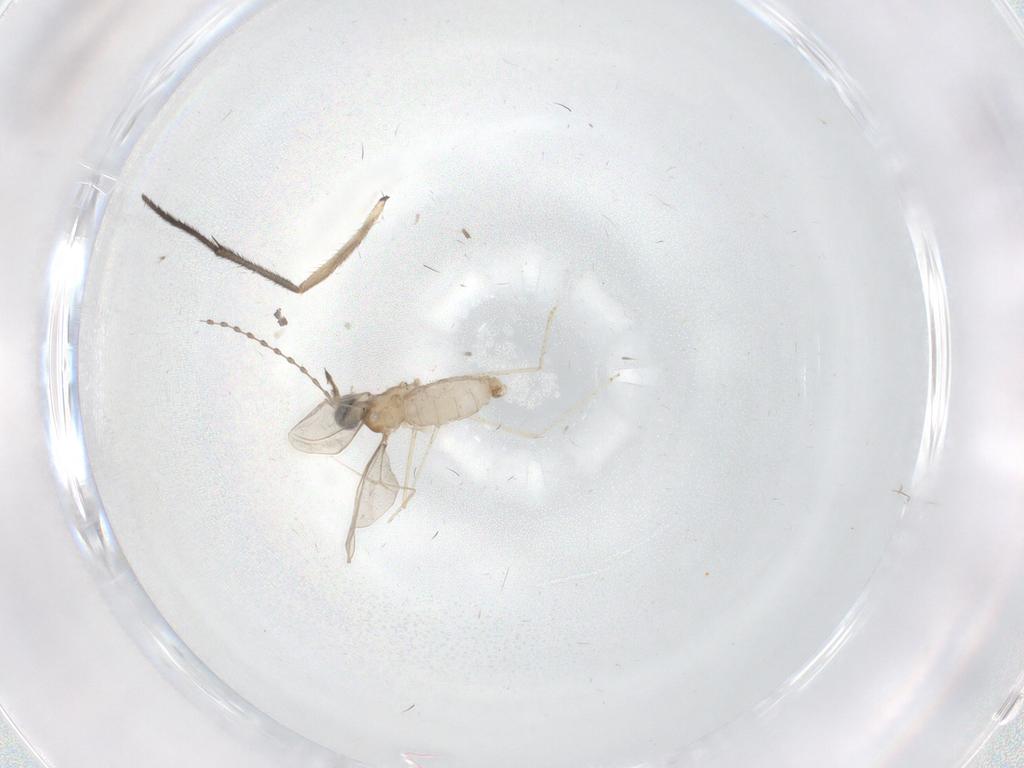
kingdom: Animalia
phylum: Arthropoda
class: Insecta
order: Diptera
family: Sciaridae
